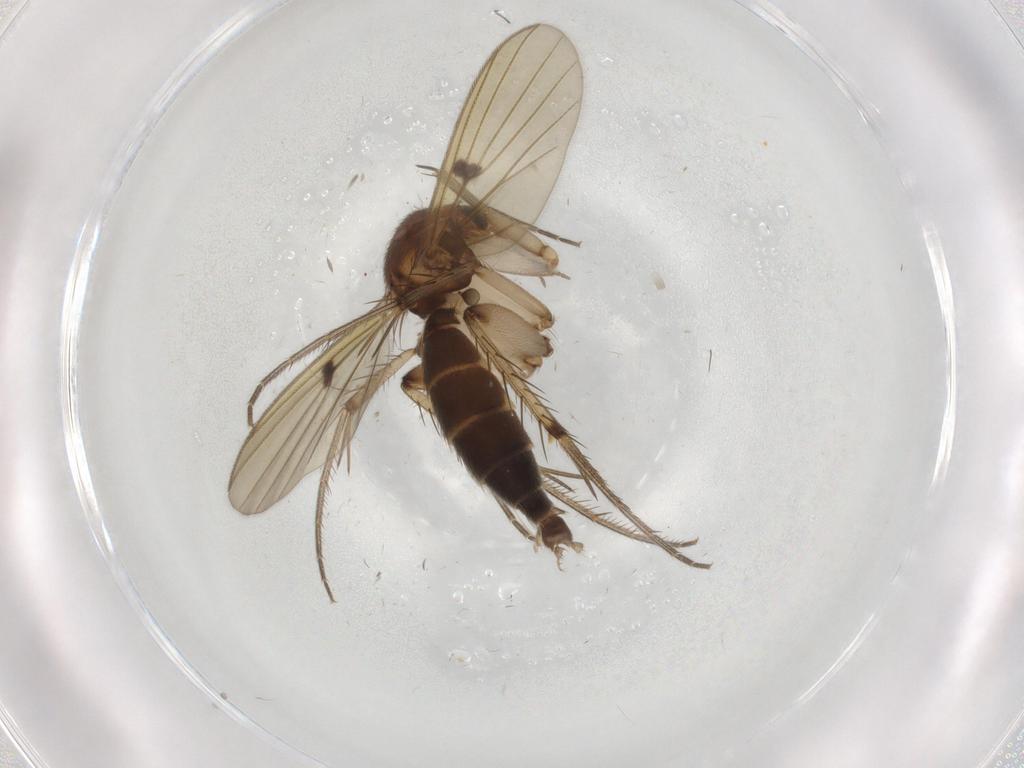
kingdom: Animalia
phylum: Arthropoda
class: Insecta
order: Diptera
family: Mycetophilidae
